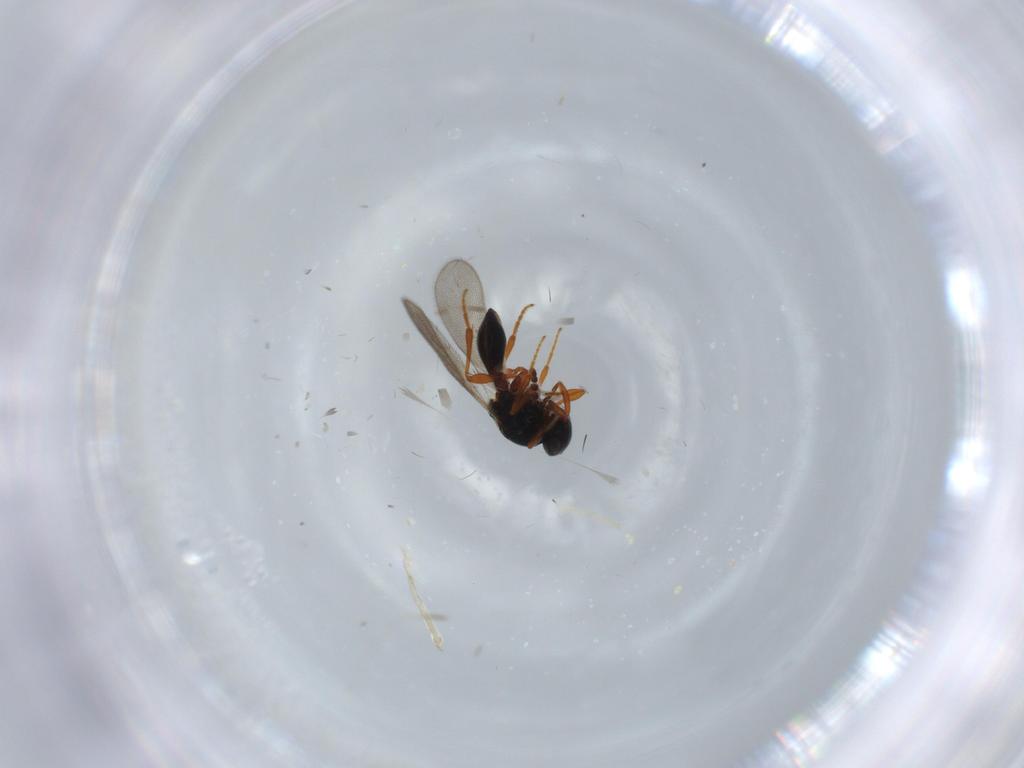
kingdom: Animalia
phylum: Arthropoda
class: Insecta
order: Hymenoptera
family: Platygastridae
